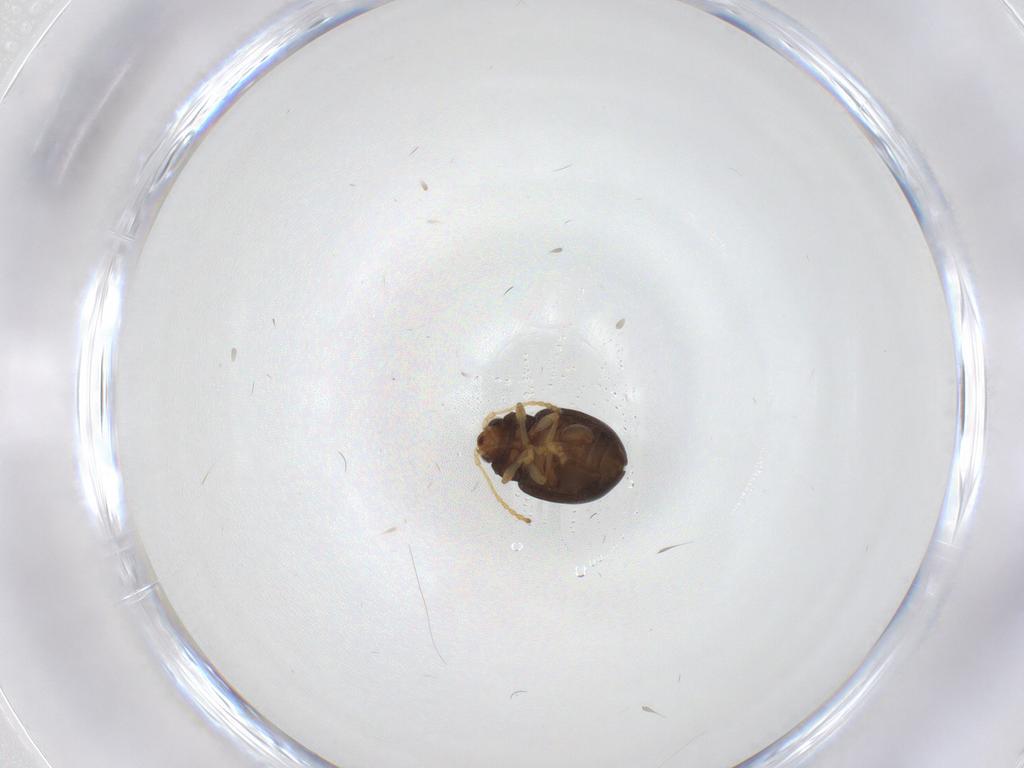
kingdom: Animalia
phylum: Arthropoda
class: Insecta
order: Coleoptera
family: Chrysomelidae
